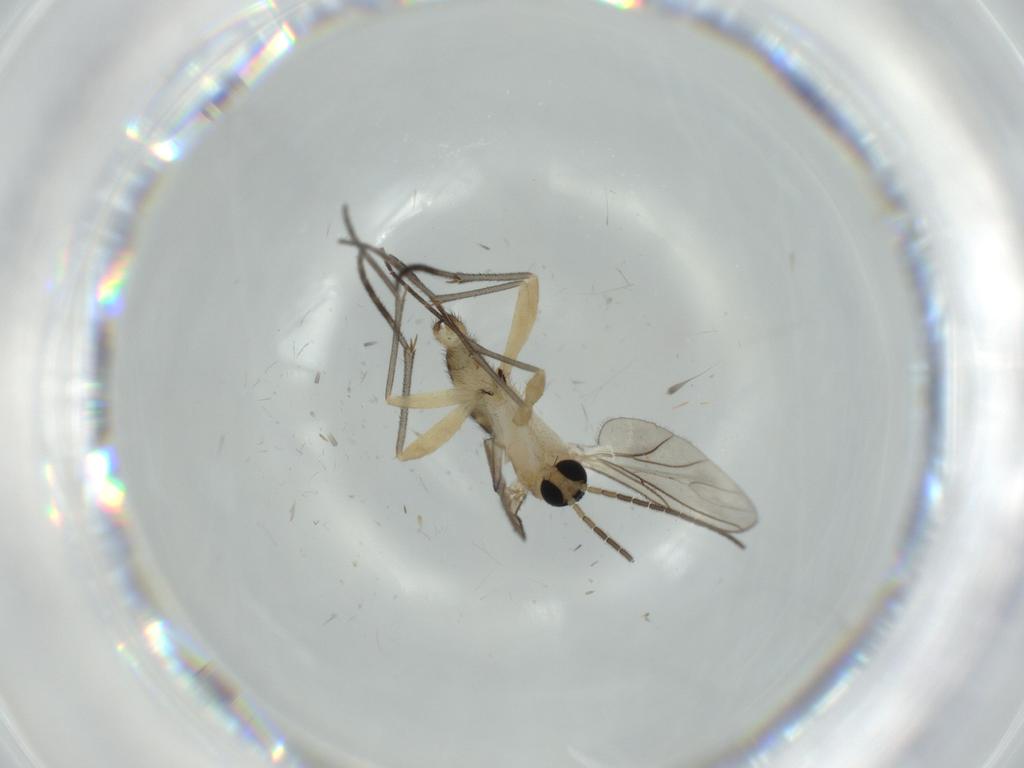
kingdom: Animalia
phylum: Arthropoda
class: Insecta
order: Diptera
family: Sciaridae
